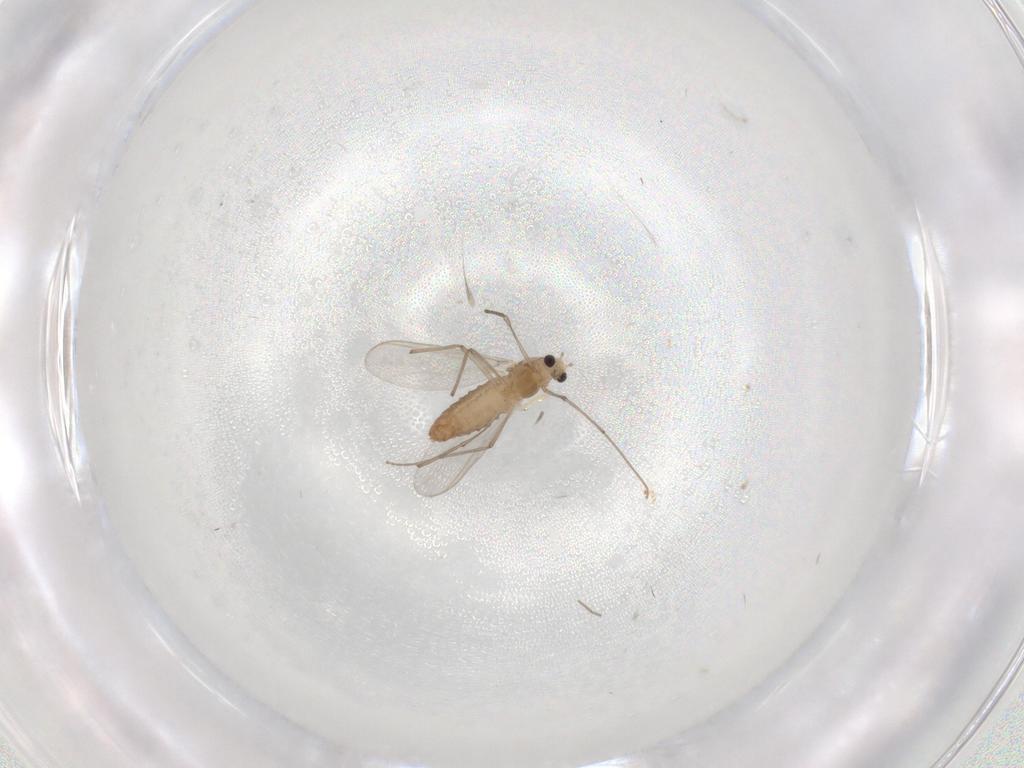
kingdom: Animalia
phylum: Arthropoda
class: Insecta
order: Diptera
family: Chironomidae
